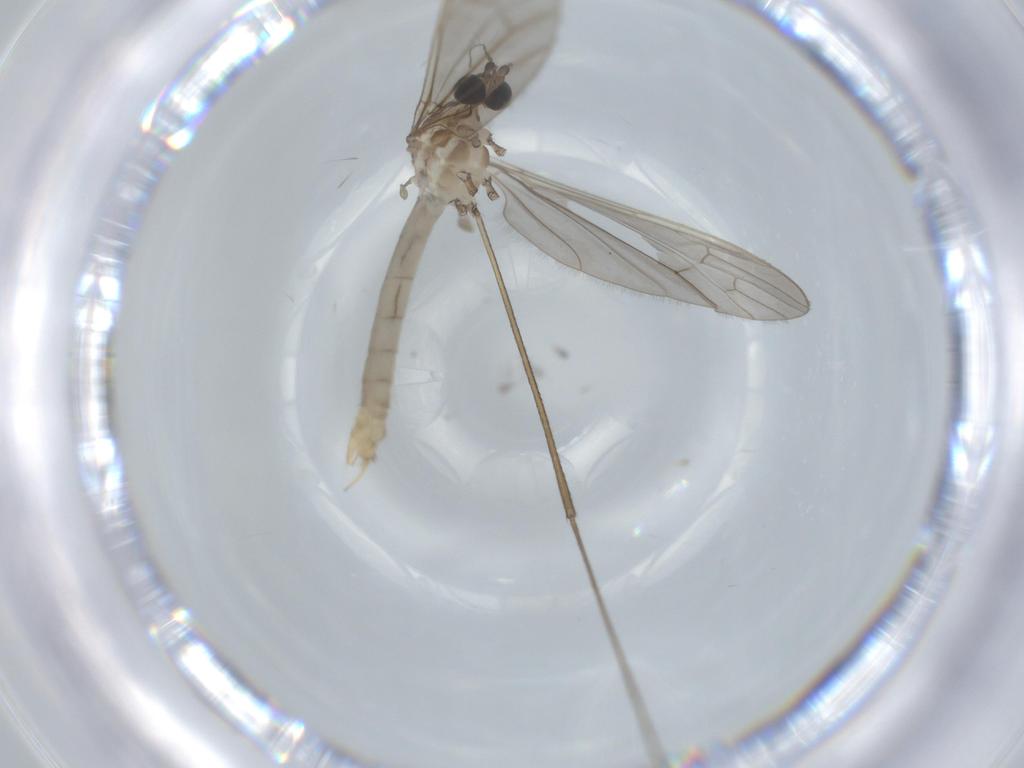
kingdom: Animalia
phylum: Arthropoda
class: Insecta
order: Diptera
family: Limoniidae
